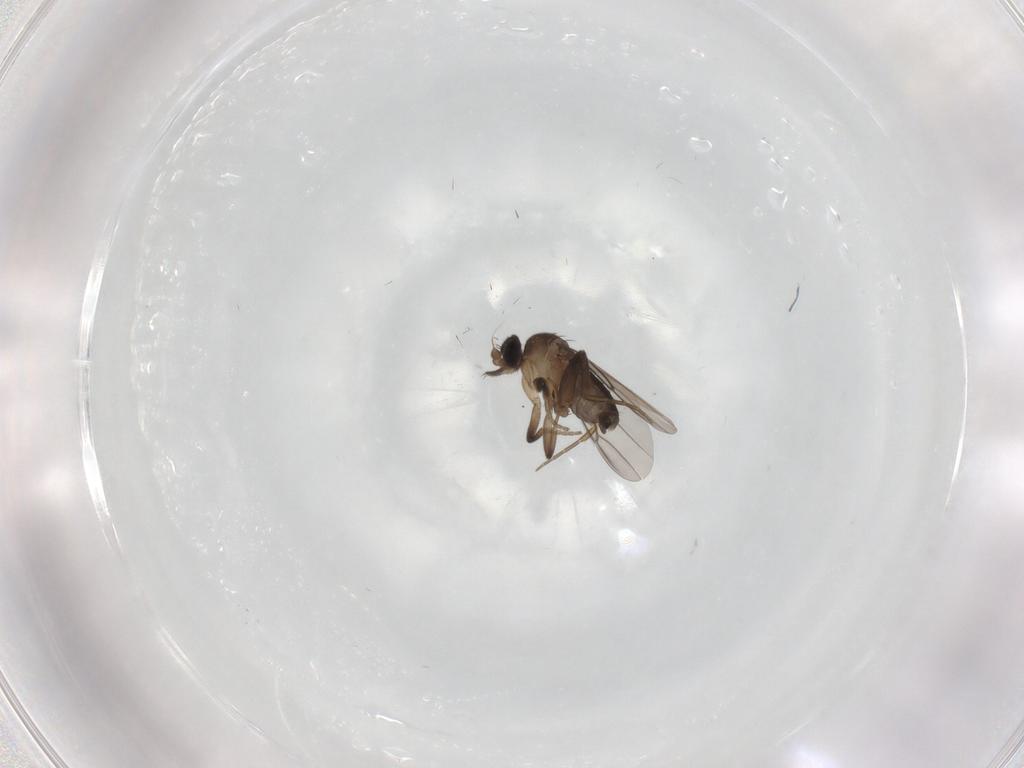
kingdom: Animalia
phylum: Arthropoda
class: Insecta
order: Diptera
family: Phoridae
